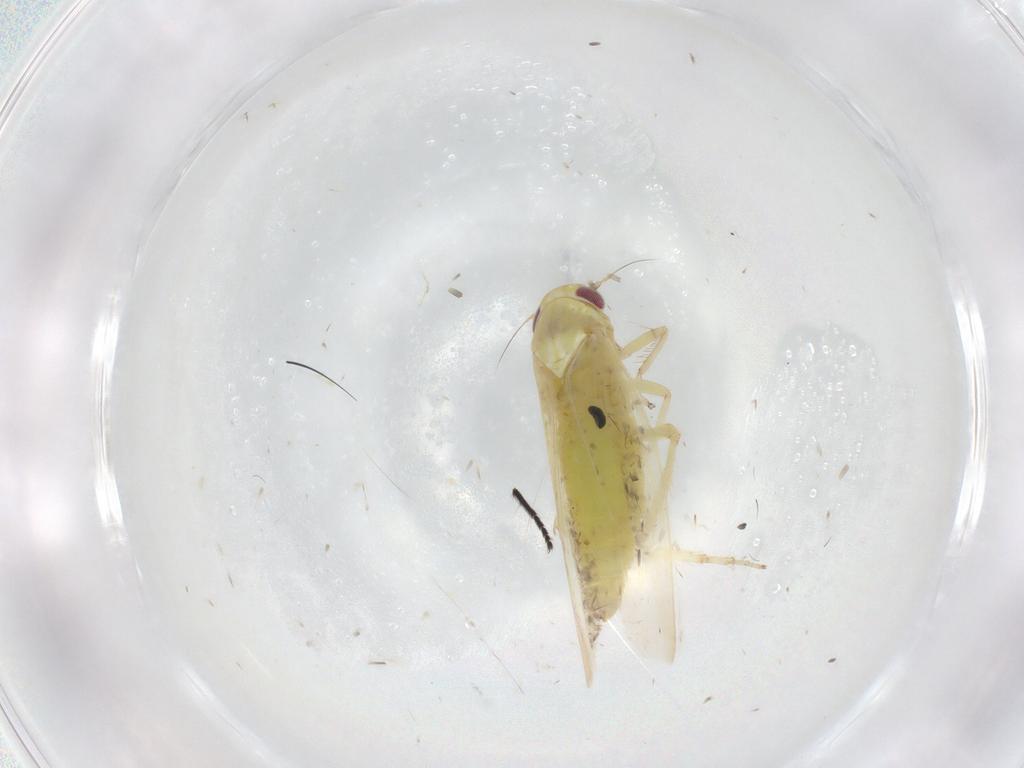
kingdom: Animalia
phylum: Arthropoda
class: Insecta
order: Hemiptera
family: Cicadellidae
